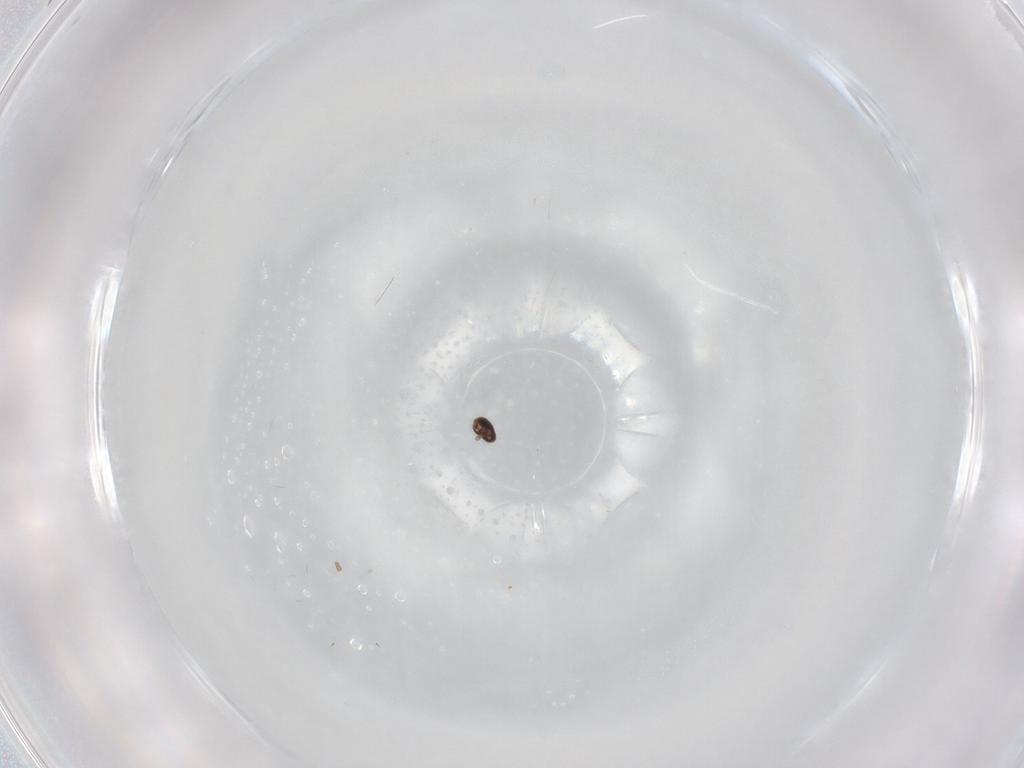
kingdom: Animalia
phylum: Arthropoda
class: Insecta
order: Diptera
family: Cecidomyiidae
